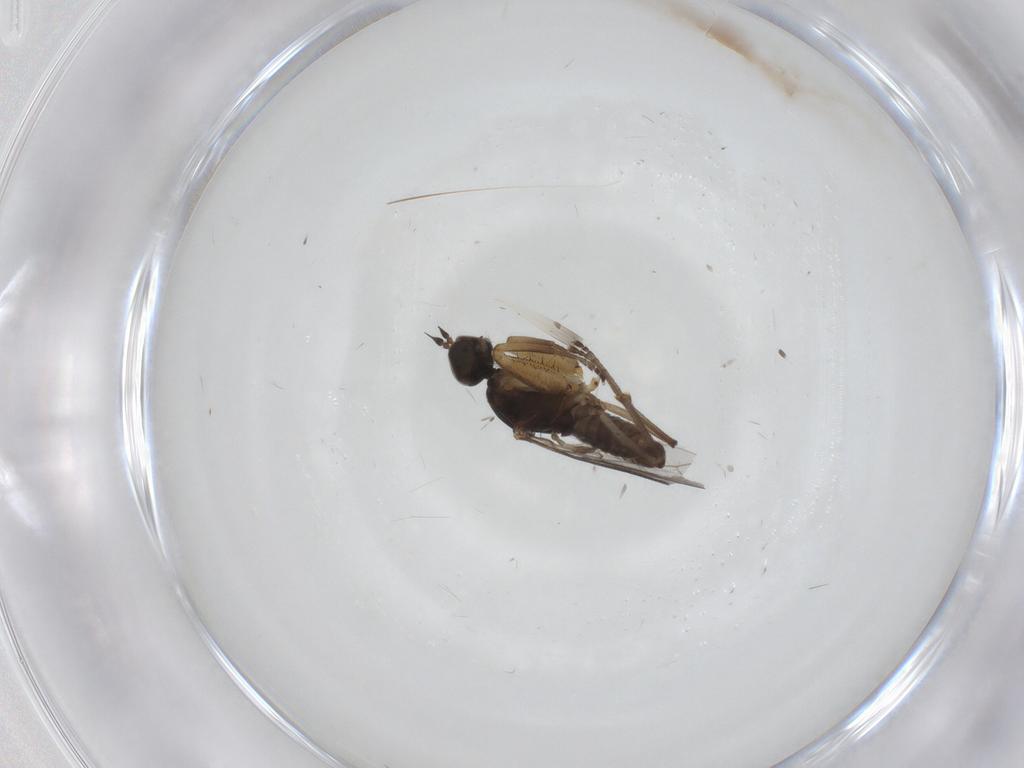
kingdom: Animalia
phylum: Arthropoda
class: Insecta
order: Diptera
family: Empididae
